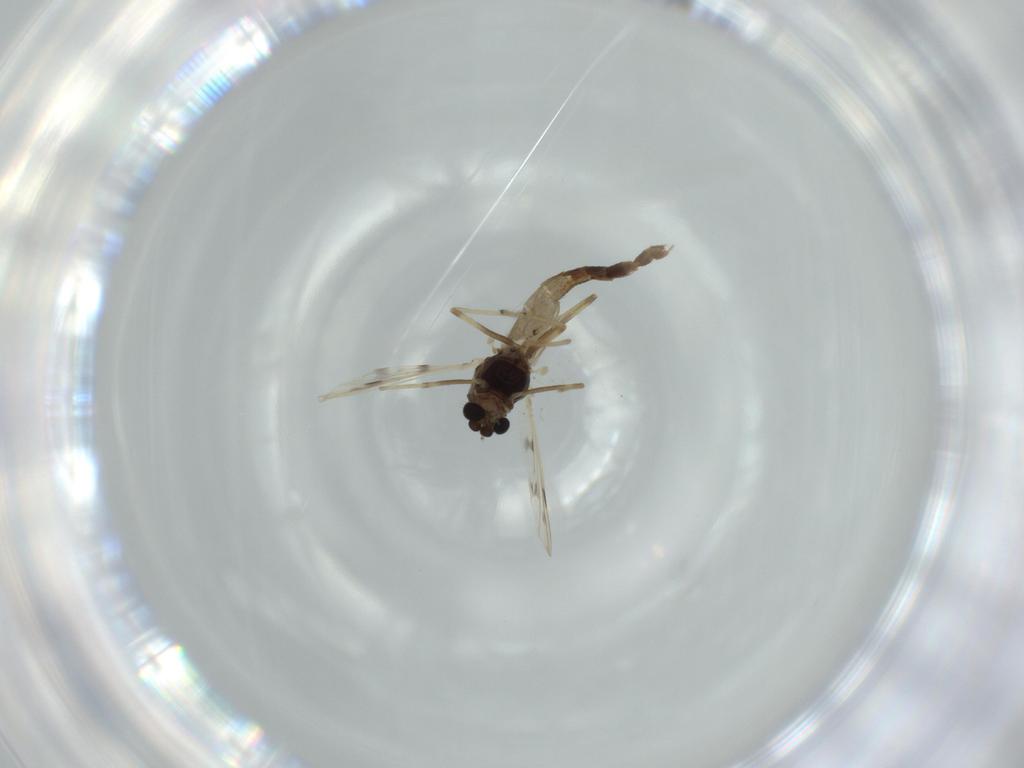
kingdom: Animalia
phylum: Arthropoda
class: Insecta
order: Diptera
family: Chironomidae
